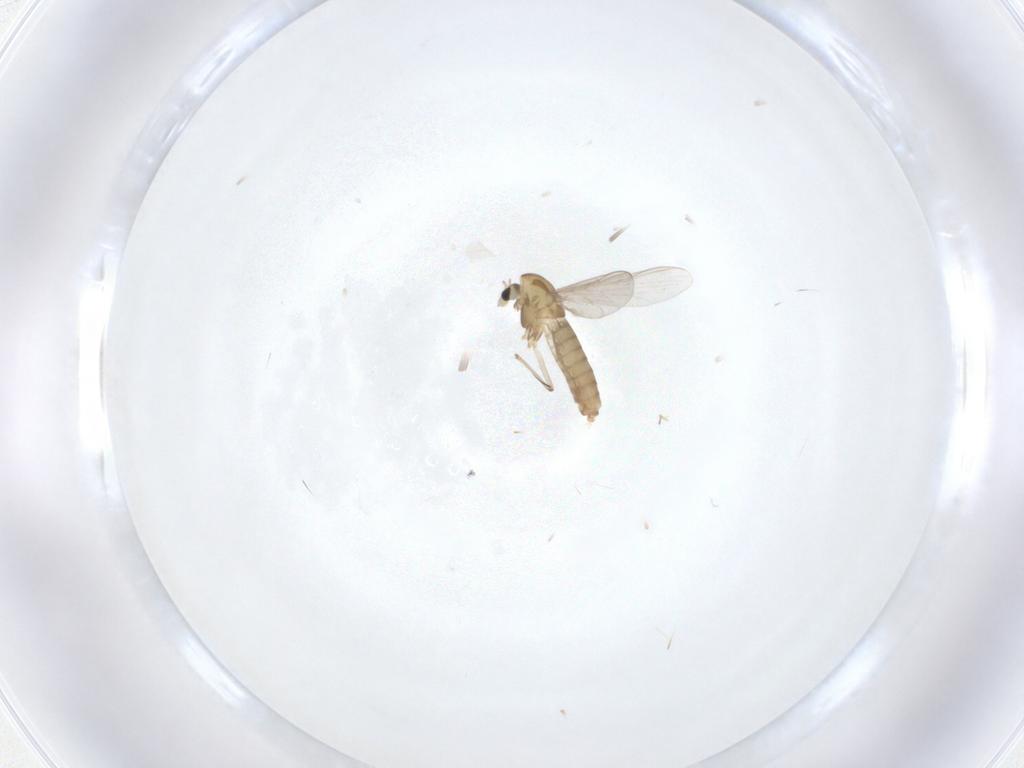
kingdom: Animalia
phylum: Arthropoda
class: Insecta
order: Diptera
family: Chironomidae
